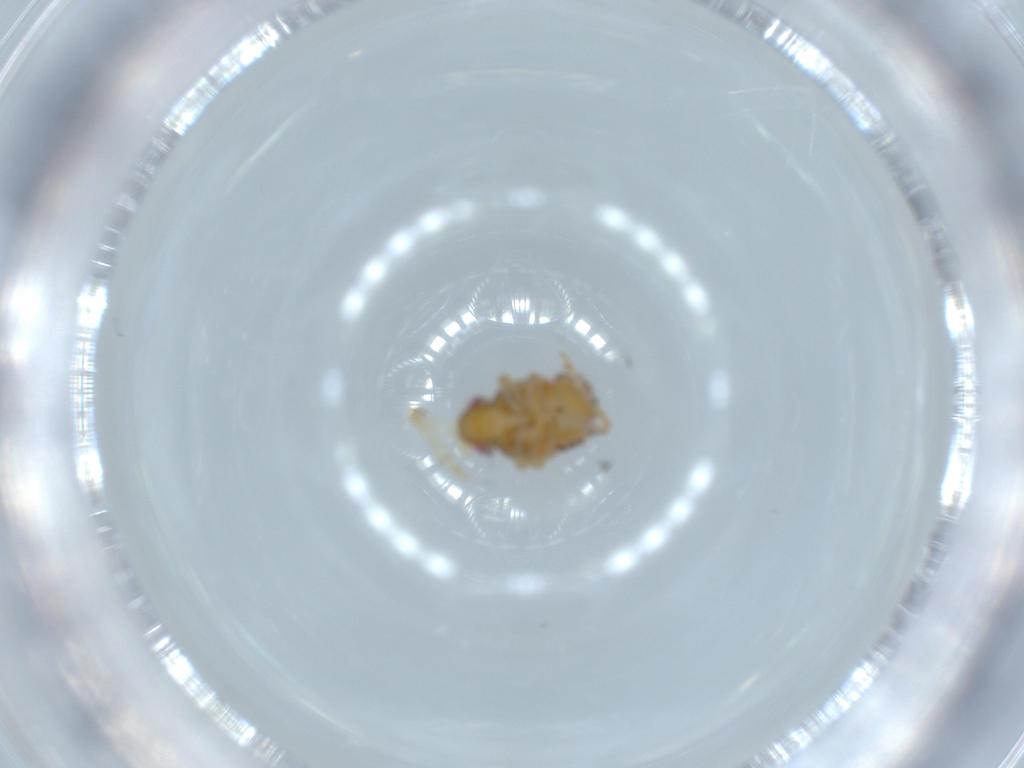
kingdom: Animalia
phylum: Arthropoda
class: Insecta
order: Hemiptera
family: Issidae
